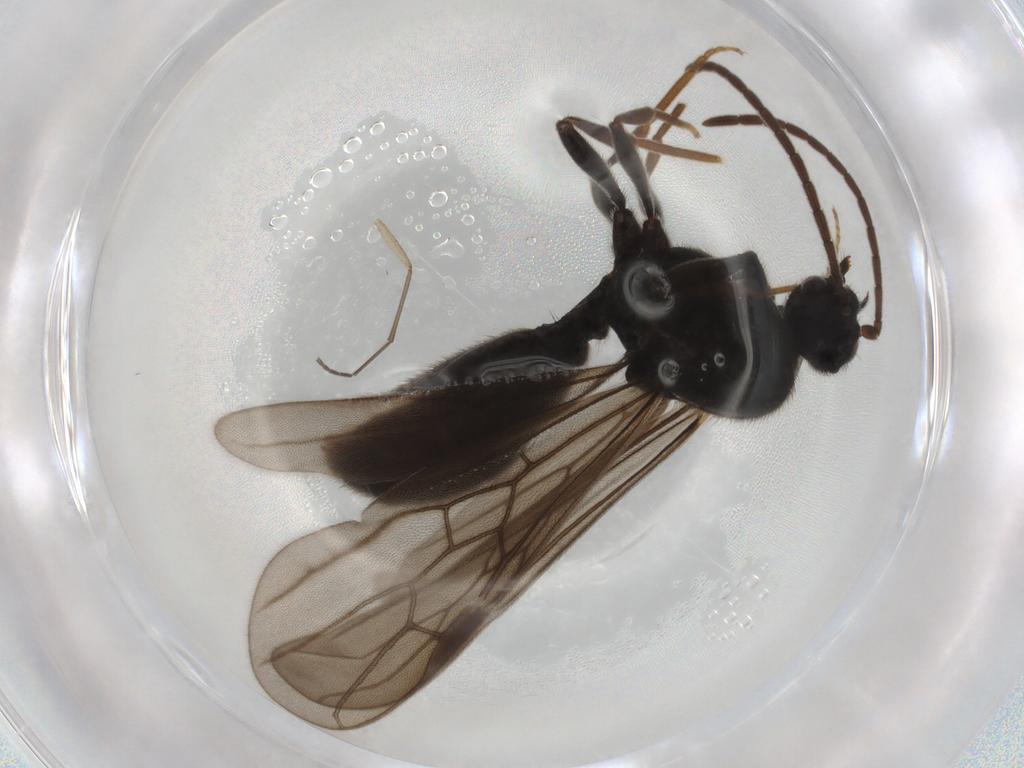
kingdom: Animalia
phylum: Arthropoda
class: Insecta
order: Hymenoptera
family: Formicidae
